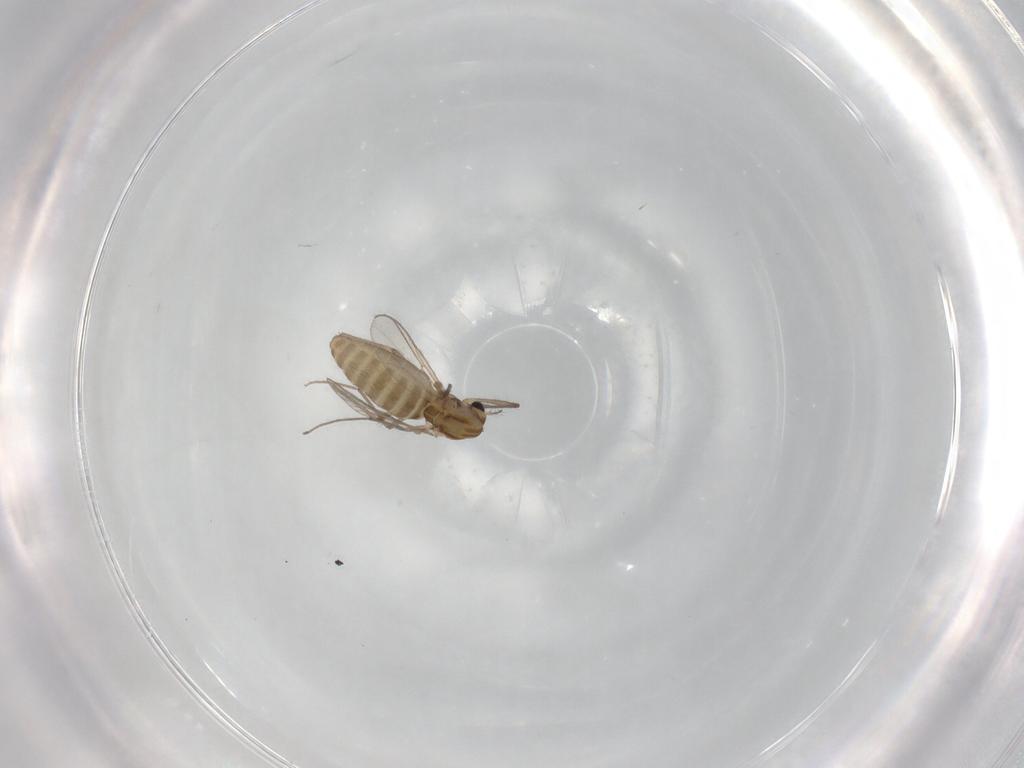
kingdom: Animalia
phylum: Arthropoda
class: Insecta
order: Diptera
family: Chironomidae
